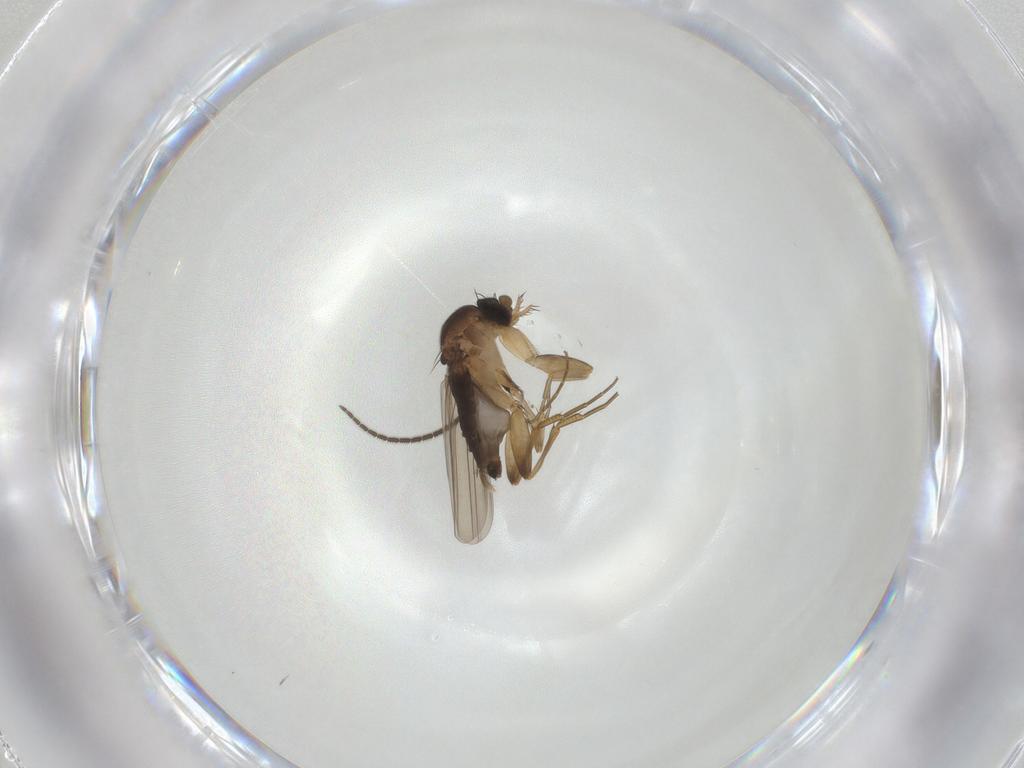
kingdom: Animalia
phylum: Arthropoda
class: Insecta
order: Diptera
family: Phoridae
